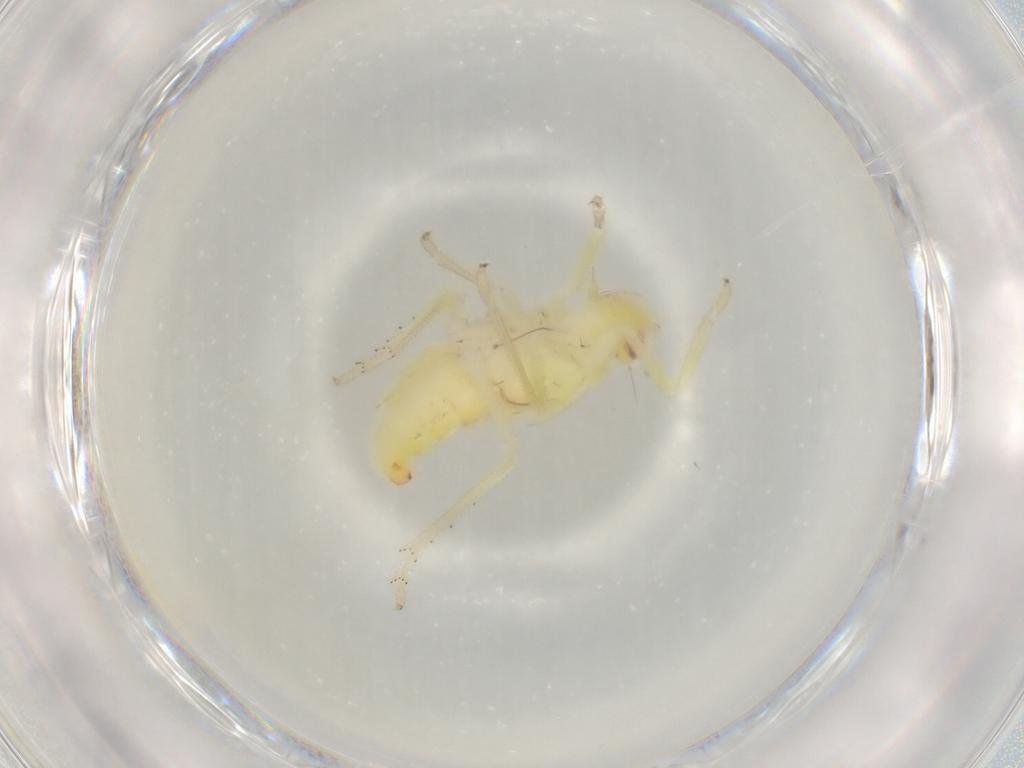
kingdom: Animalia
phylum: Arthropoda
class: Insecta
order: Hemiptera
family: Tropiduchidae
